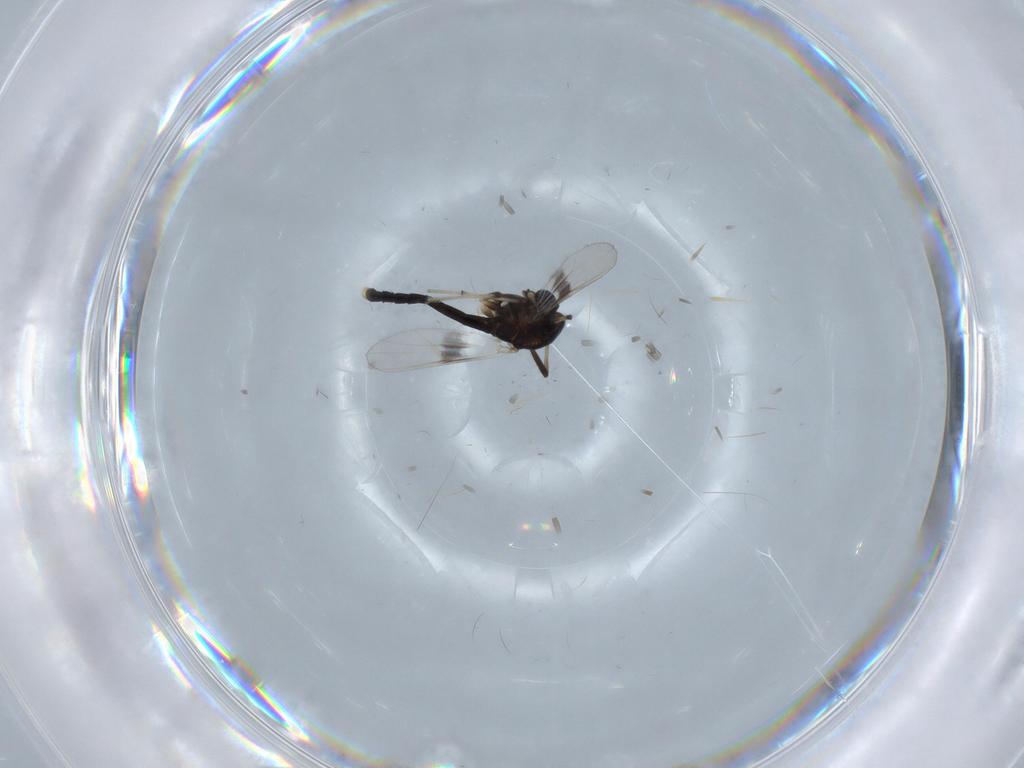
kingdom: Animalia
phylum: Arthropoda
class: Insecta
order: Diptera
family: Chironomidae
